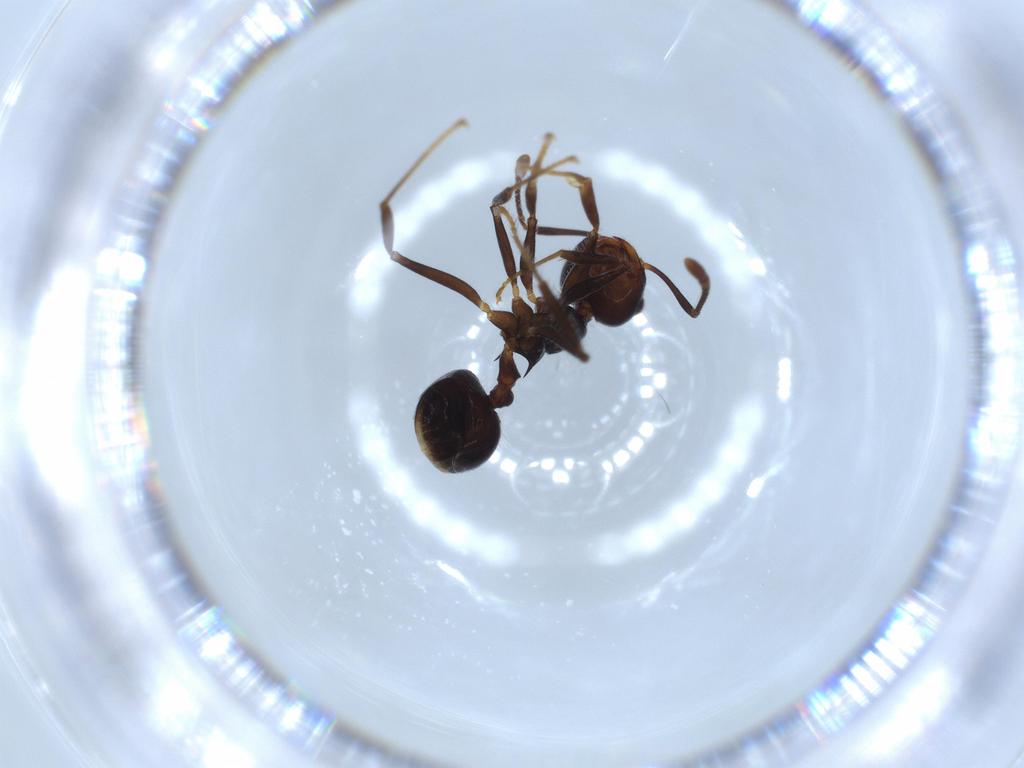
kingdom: Animalia
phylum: Arthropoda
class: Insecta
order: Hymenoptera
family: Formicidae
